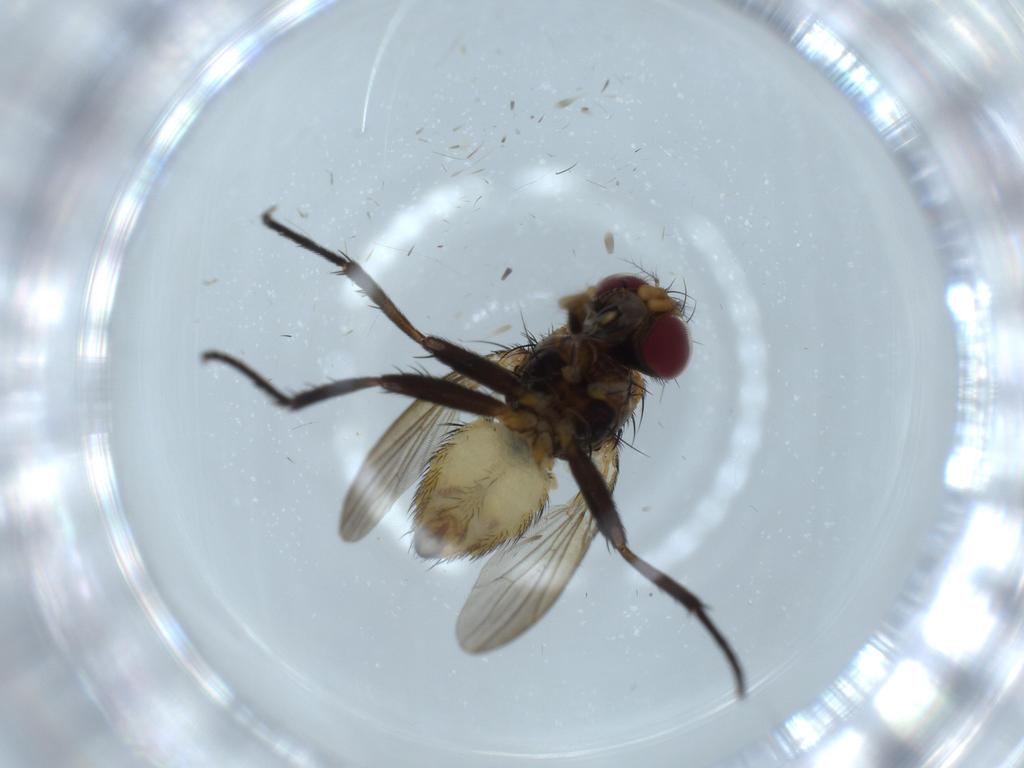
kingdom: Animalia
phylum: Arthropoda
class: Insecta
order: Diptera
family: Anthomyiidae
